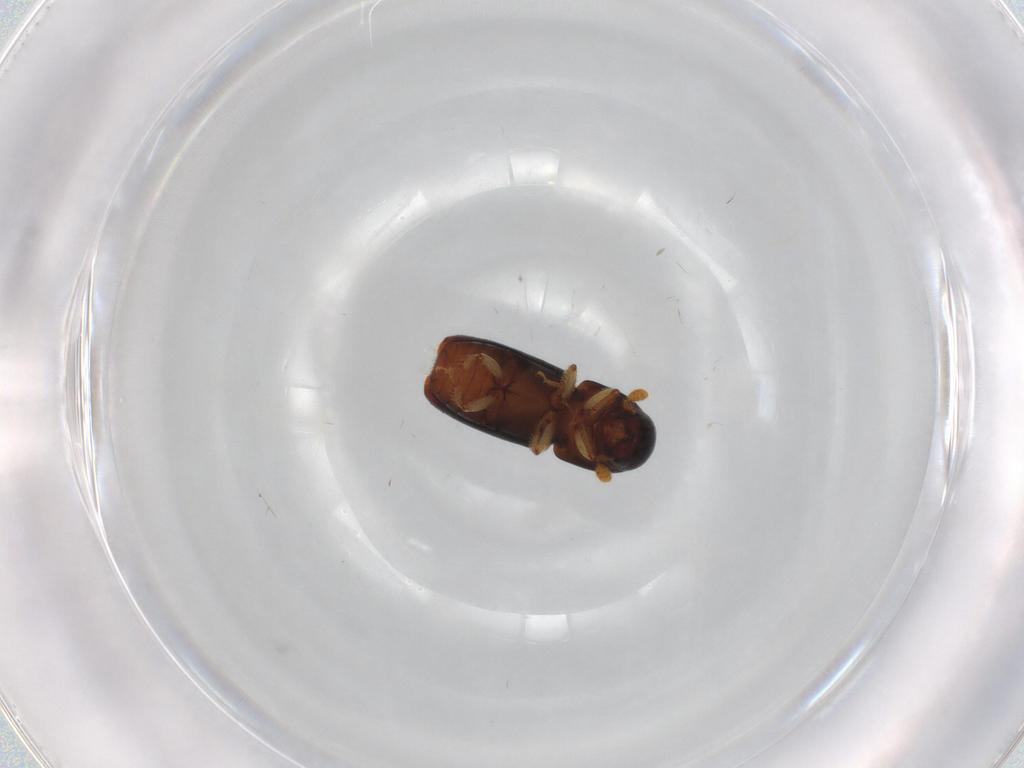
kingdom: Animalia
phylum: Arthropoda
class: Insecta
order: Coleoptera
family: Curculionidae
